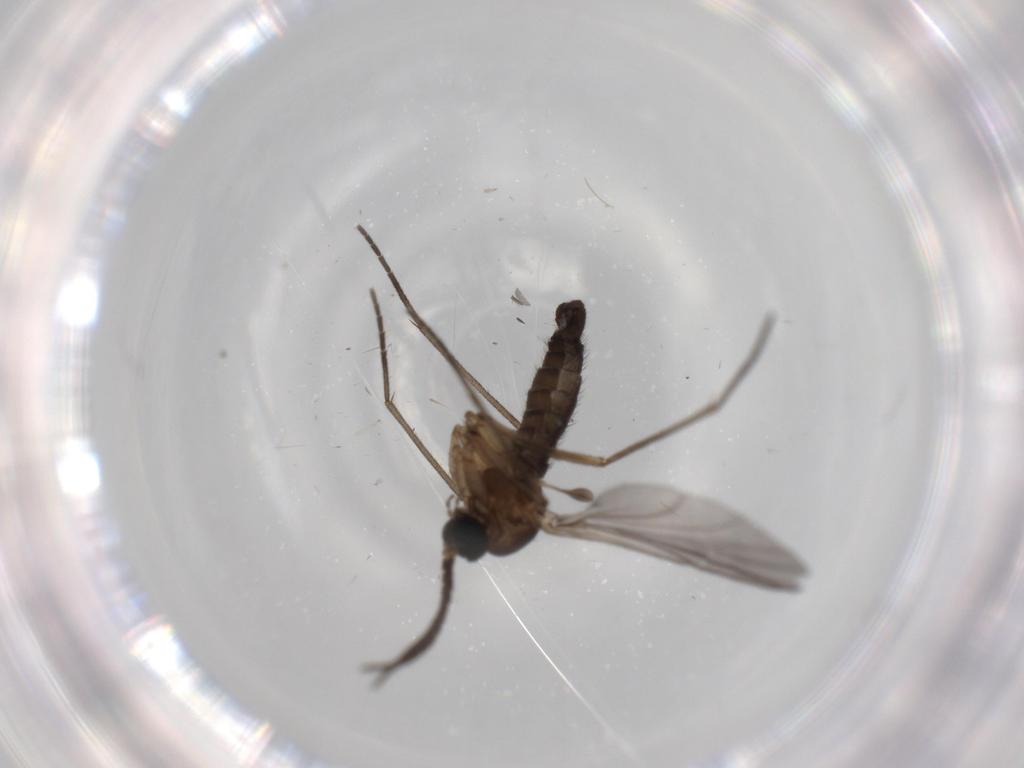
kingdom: Animalia
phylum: Arthropoda
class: Insecta
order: Diptera
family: Sciaridae
